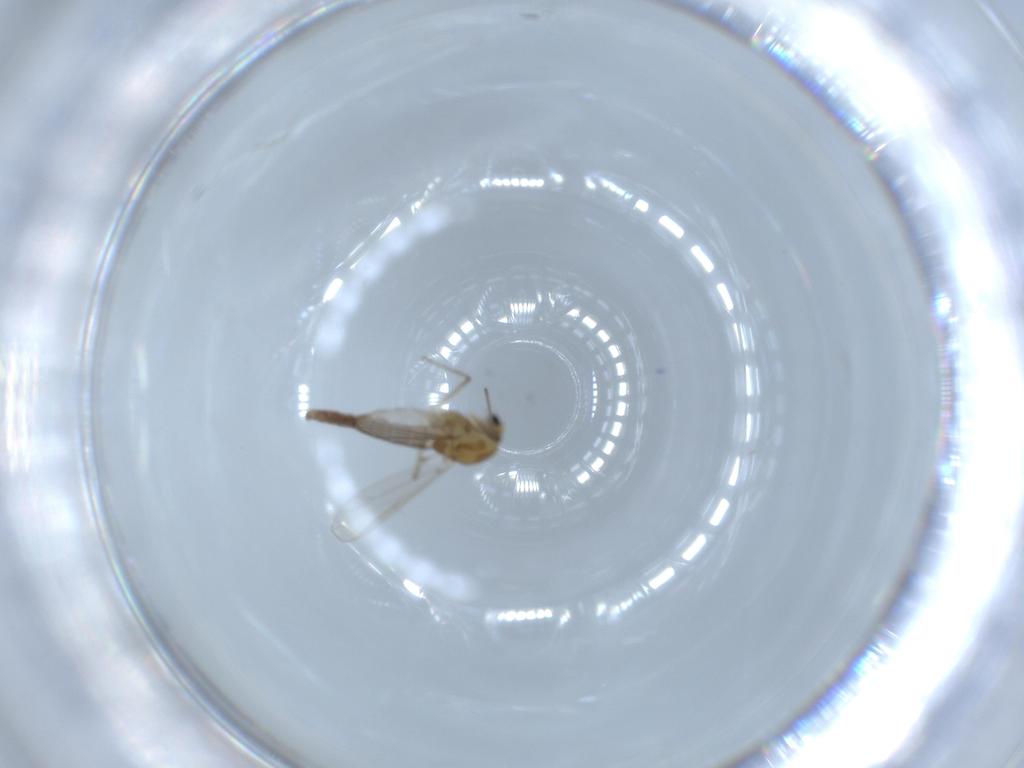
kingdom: Animalia
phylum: Arthropoda
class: Insecta
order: Diptera
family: Chironomidae
